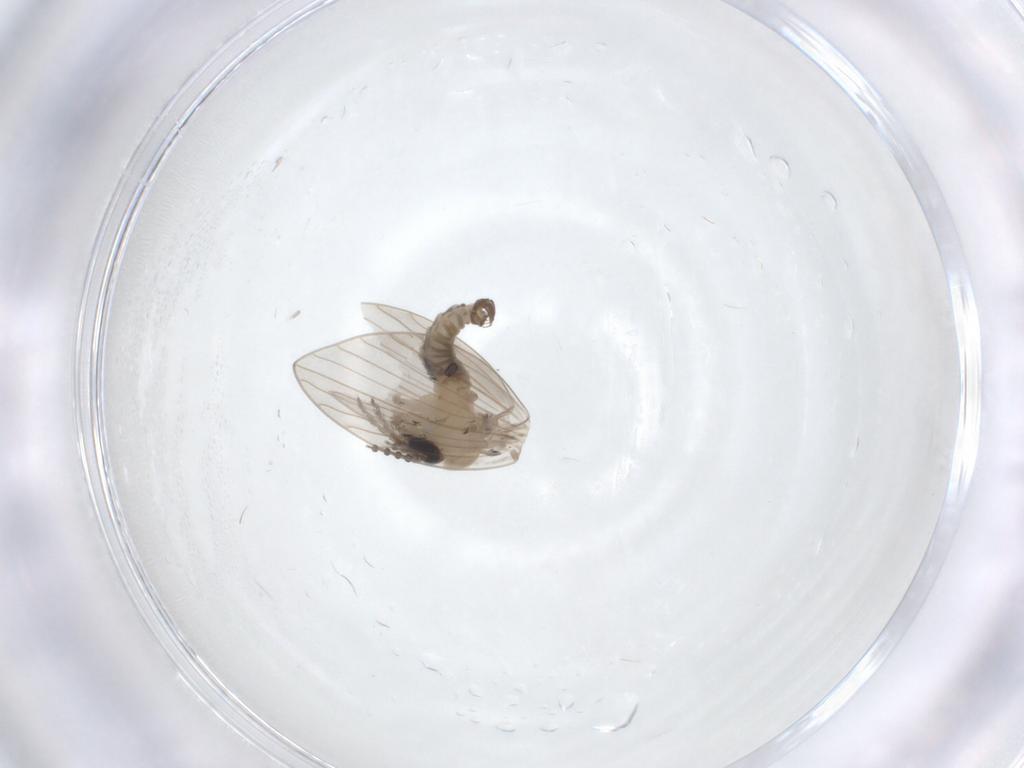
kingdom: Animalia
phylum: Arthropoda
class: Insecta
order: Diptera
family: Psychodidae
